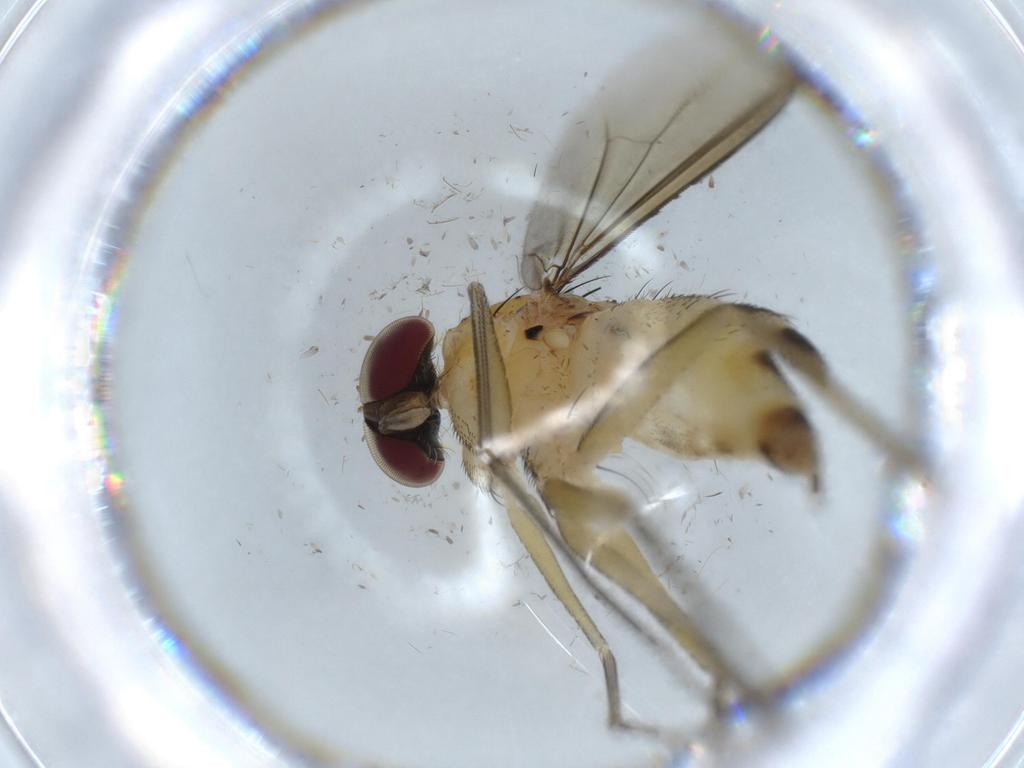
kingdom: Animalia
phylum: Arthropoda
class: Insecta
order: Diptera
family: Dolichopodidae
